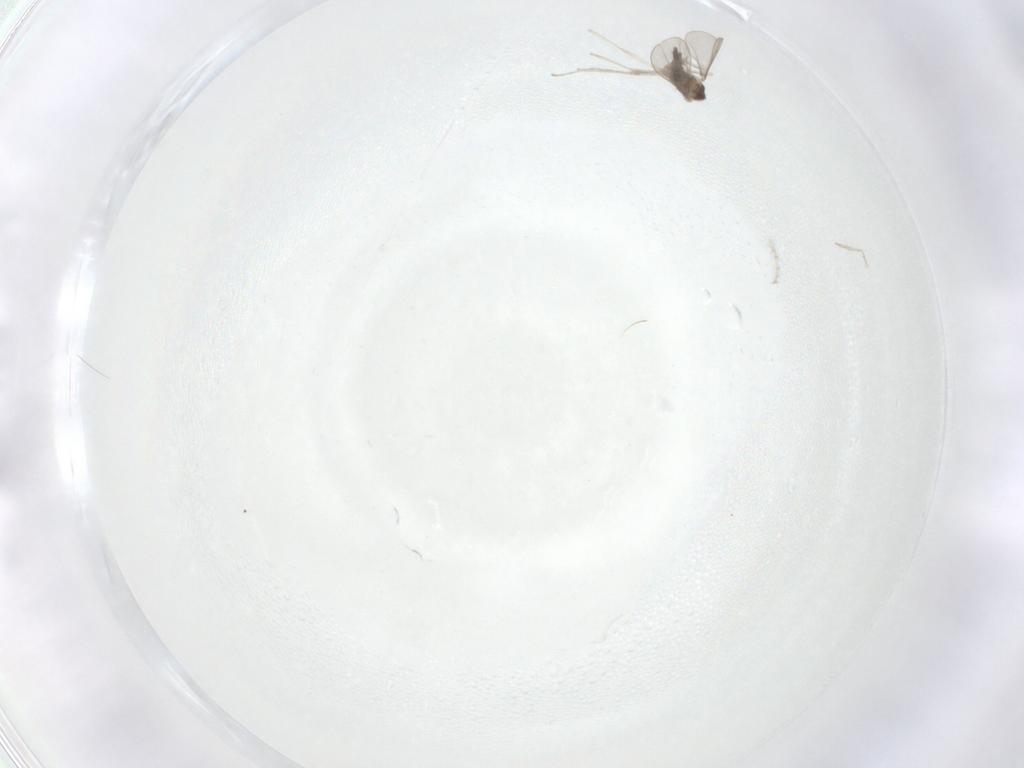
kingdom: Animalia
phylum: Arthropoda
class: Insecta
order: Diptera
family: Cecidomyiidae
